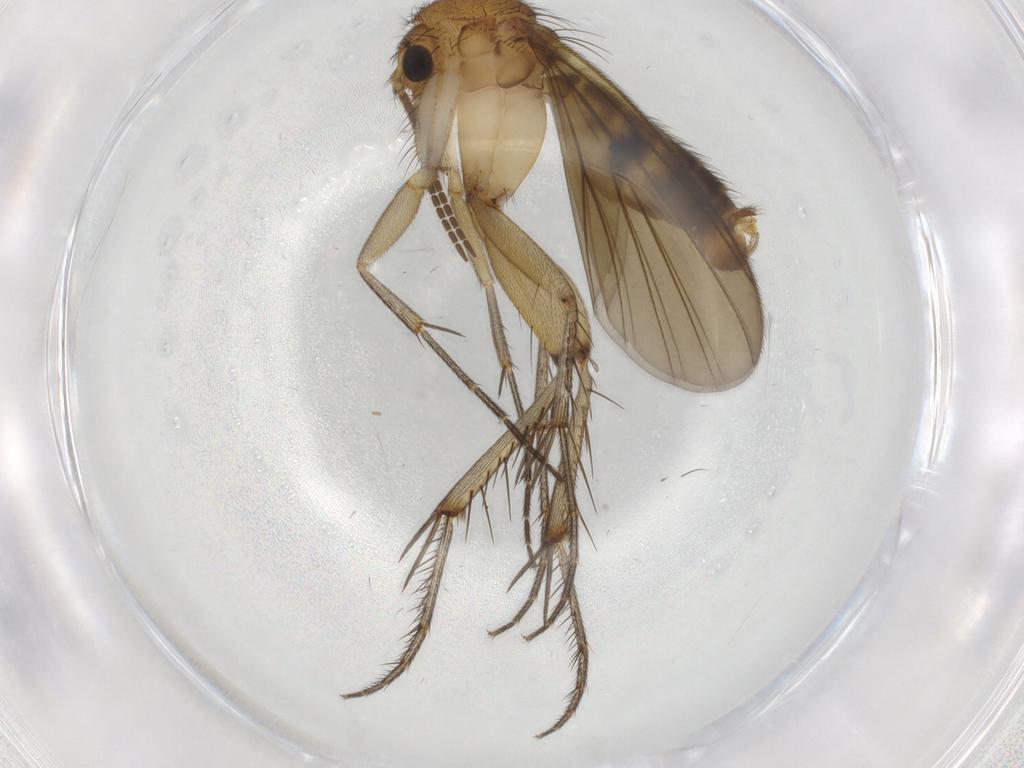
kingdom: Animalia
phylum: Arthropoda
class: Insecta
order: Diptera
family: Mycetophilidae
